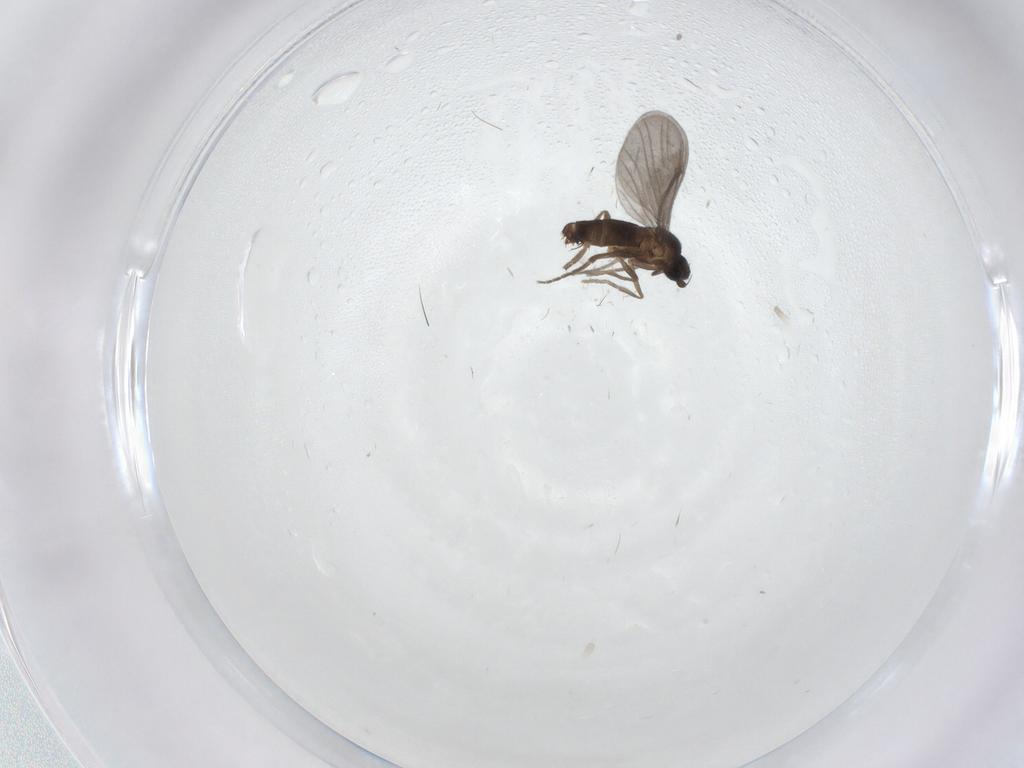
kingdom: Animalia
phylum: Arthropoda
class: Insecta
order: Diptera
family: Phoridae
